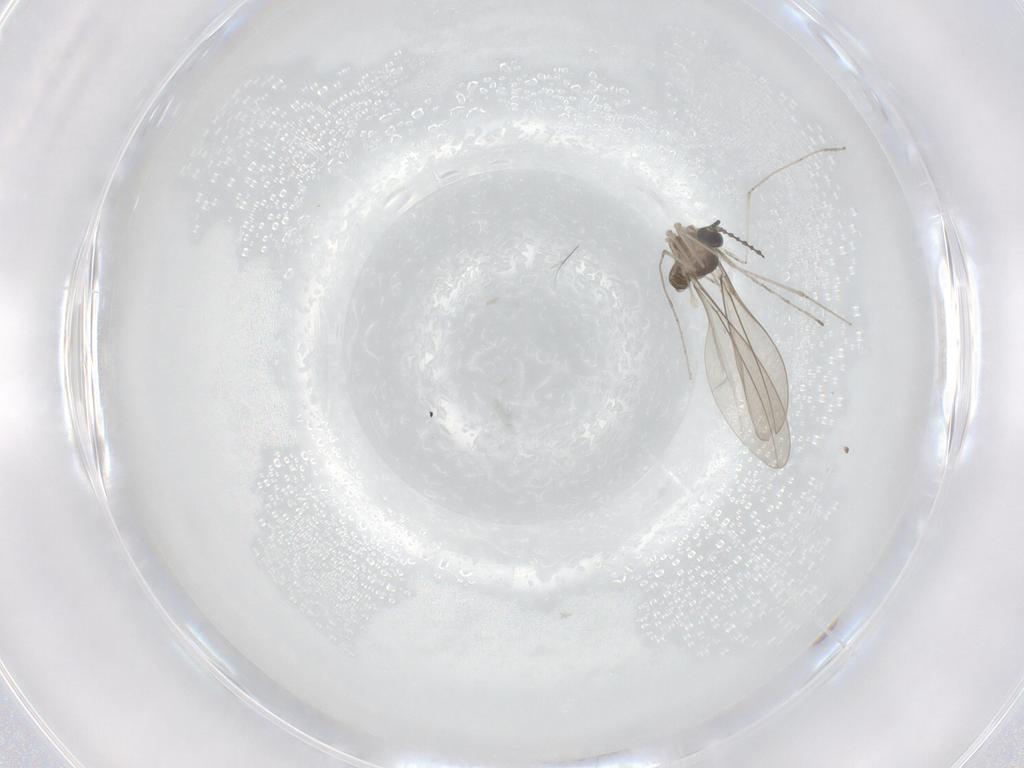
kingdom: Animalia
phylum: Arthropoda
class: Insecta
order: Diptera
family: Cecidomyiidae
